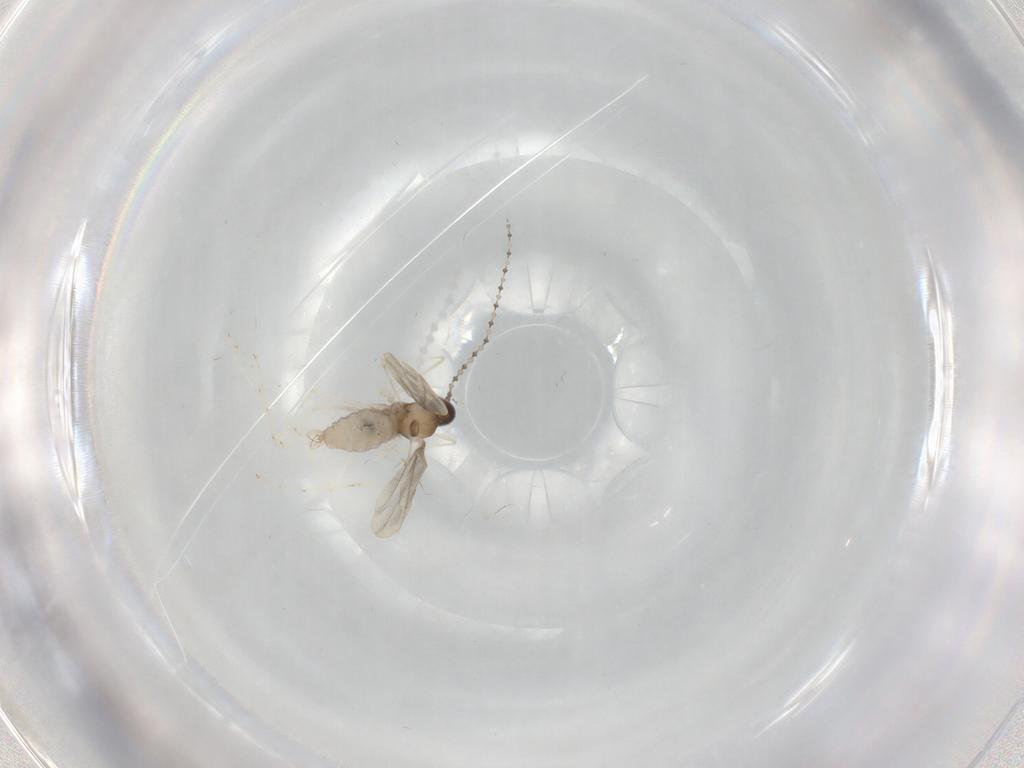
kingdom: Animalia
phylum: Arthropoda
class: Insecta
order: Diptera
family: Cecidomyiidae
